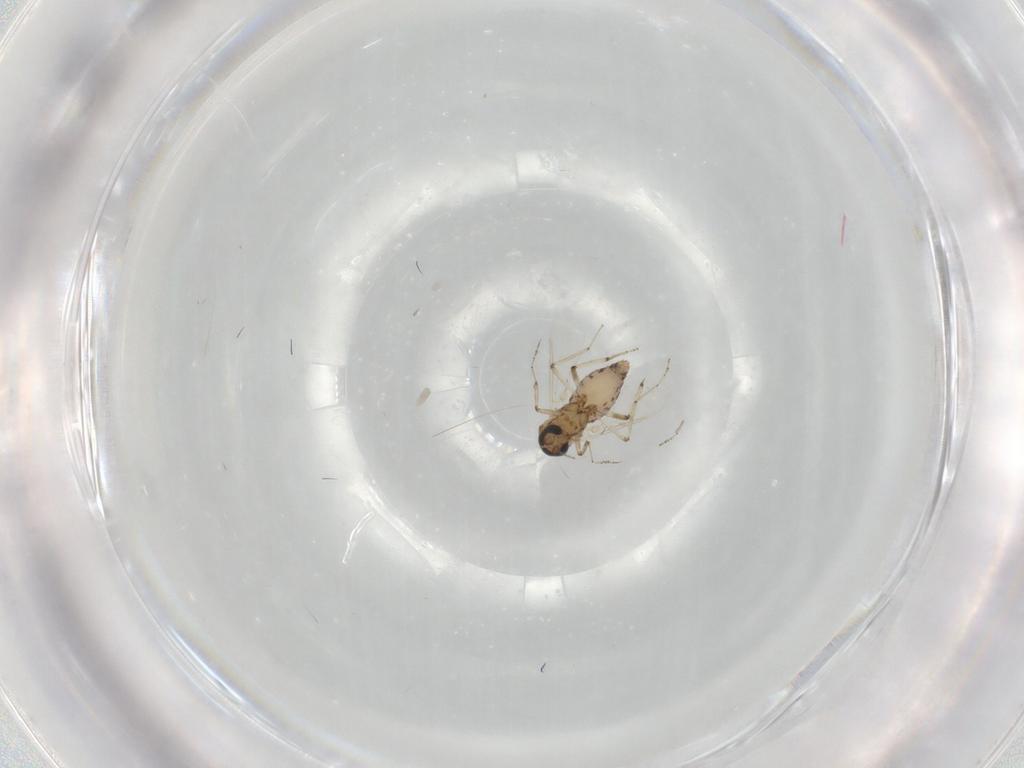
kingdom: Animalia
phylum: Arthropoda
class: Insecta
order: Diptera
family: Ceratopogonidae
